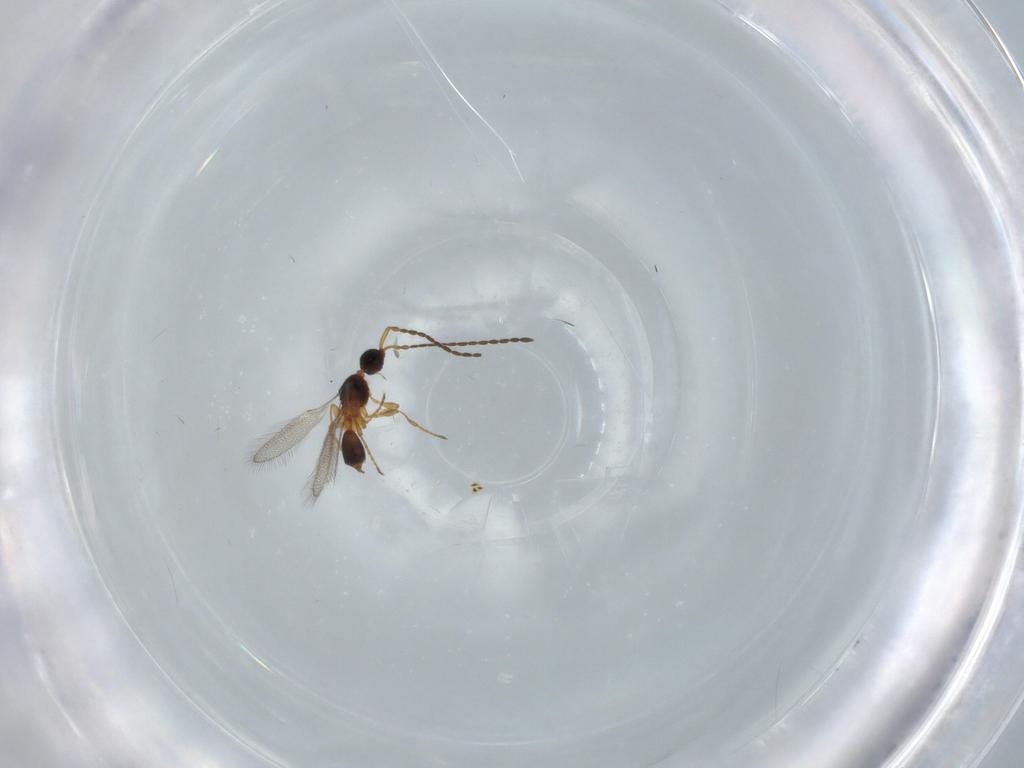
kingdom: Animalia
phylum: Arthropoda
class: Insecta
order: Hymenoptera
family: Diapriidae
